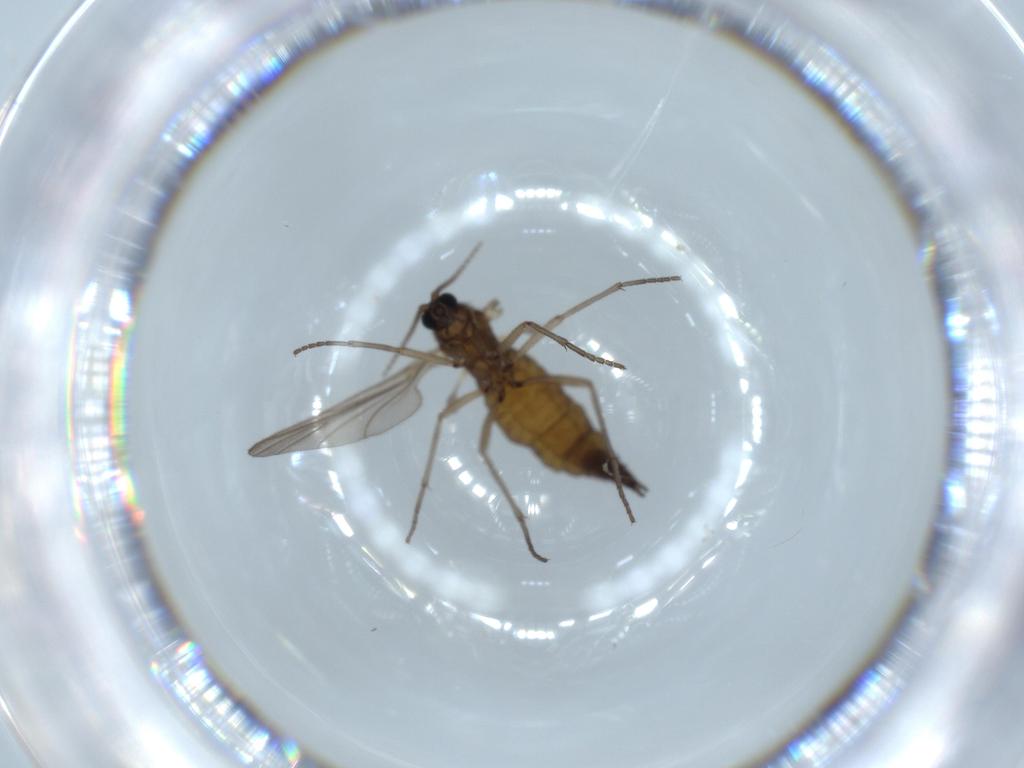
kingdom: Animalia
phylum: Arthropoda
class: Insecta
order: Diptera
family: Sciaridae
